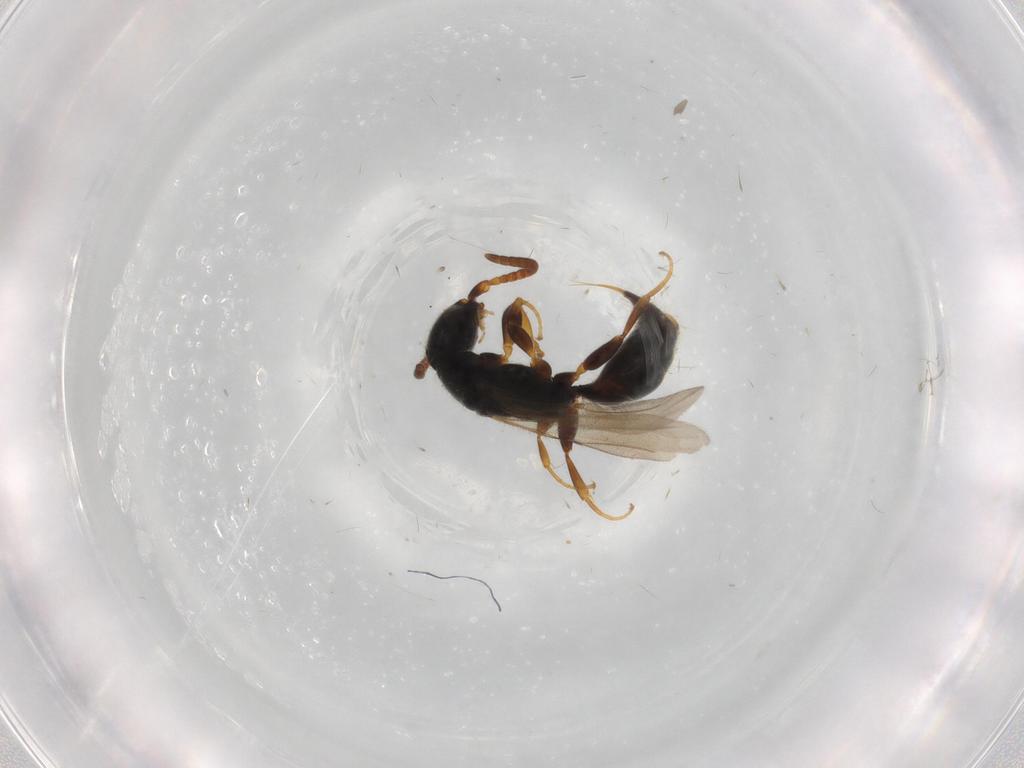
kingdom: Animalia
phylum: Arthropoda
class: Insecta
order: Hymenoptera
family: Bethylidae
